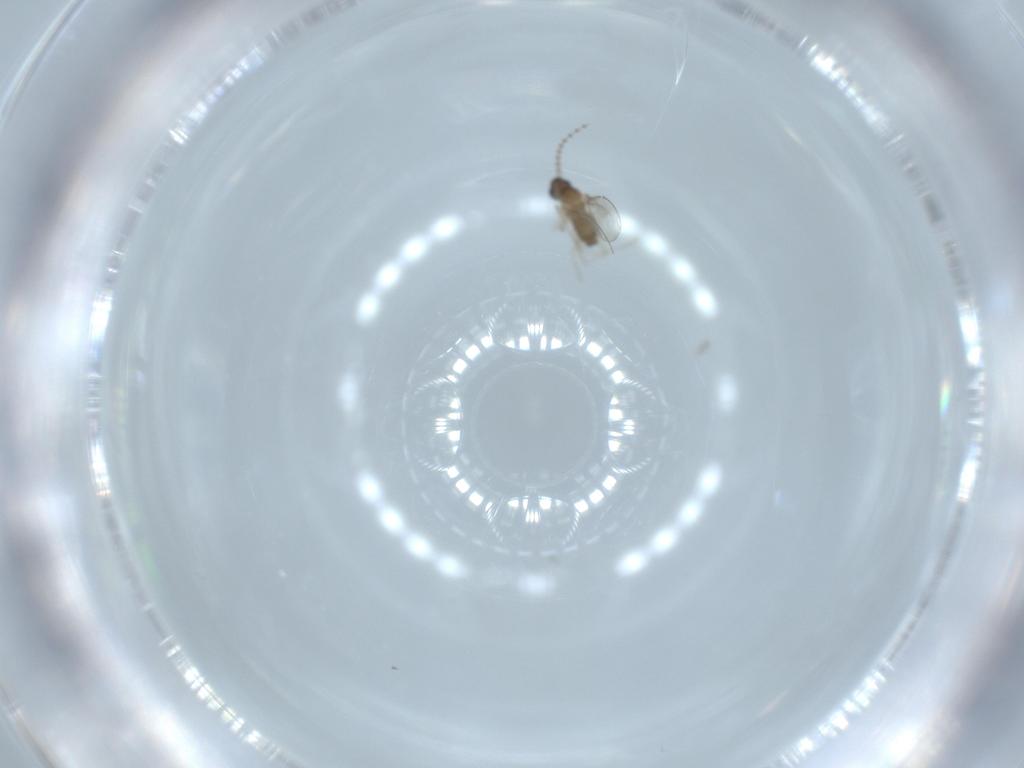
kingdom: Animalia
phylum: Arthropoda
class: Insecta
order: Diptera
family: Cecidomyiidae
